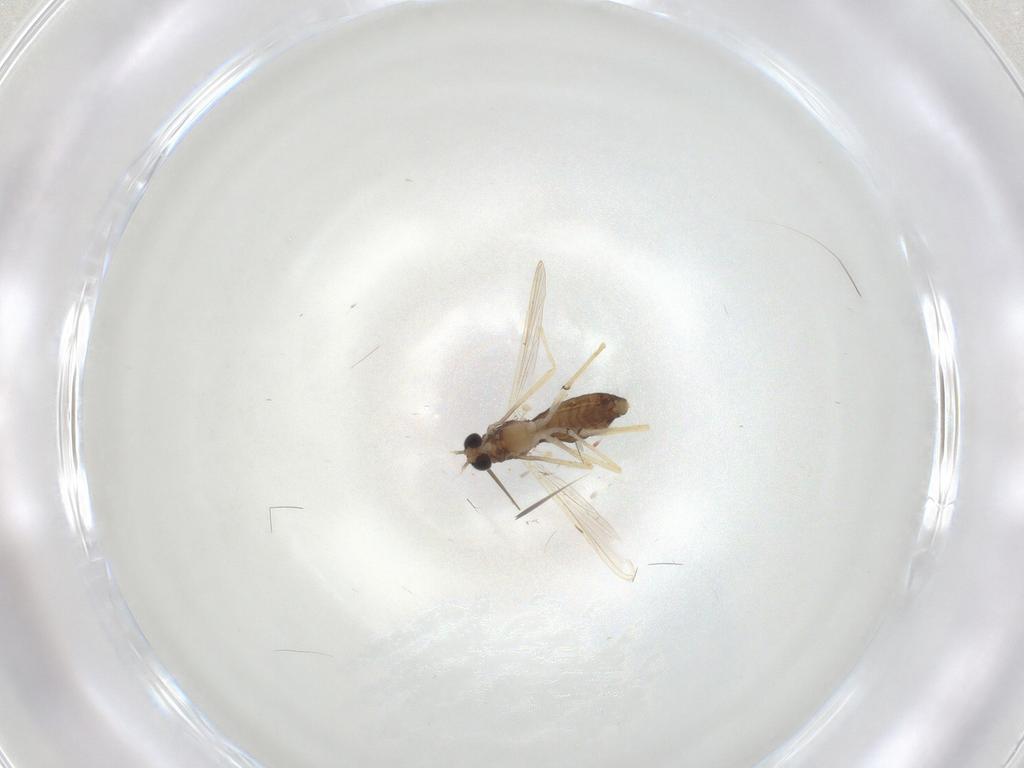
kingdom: Animalia
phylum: Arthropoda
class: Insecta
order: Diptera
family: Chironomidae
